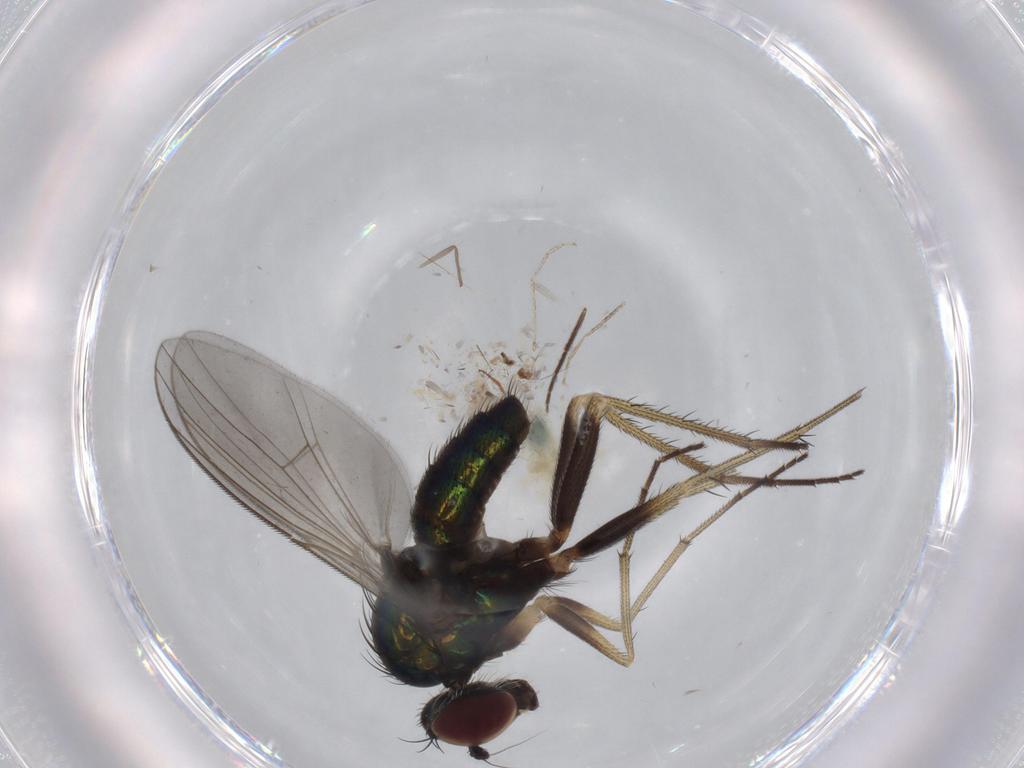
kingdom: Animalia
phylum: Arthropoda
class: Insecta
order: Diptera
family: Dolichopodidae
